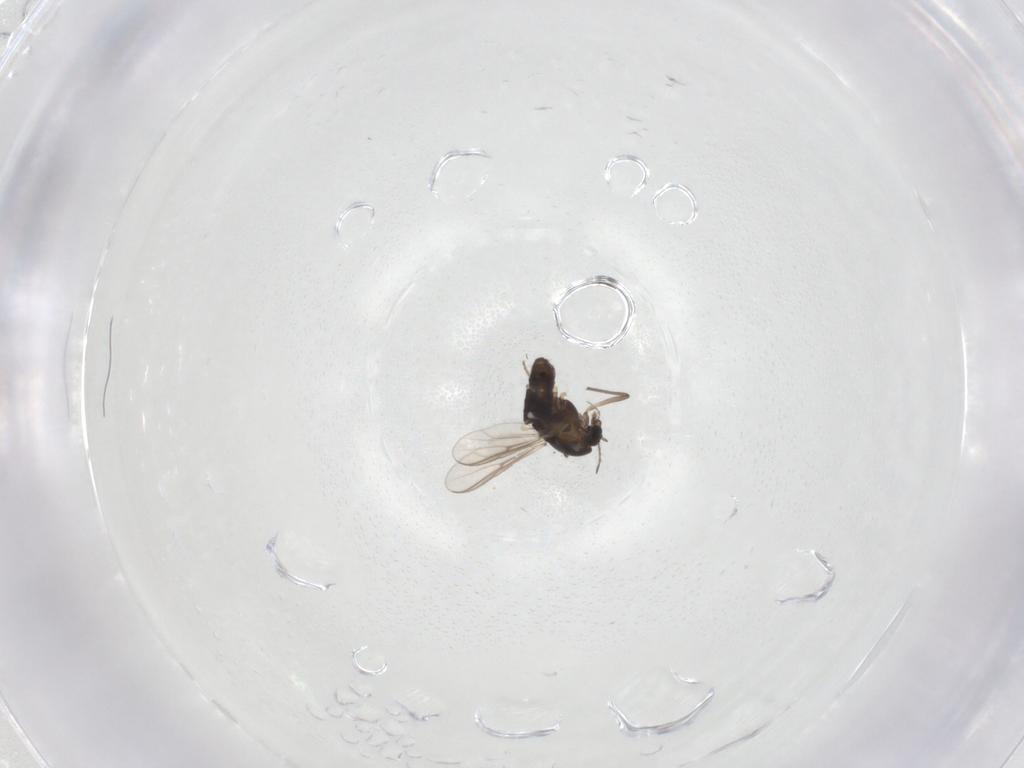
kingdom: Animalia
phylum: Arthropoda
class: Insecta
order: Diptera
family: Chironomidae
